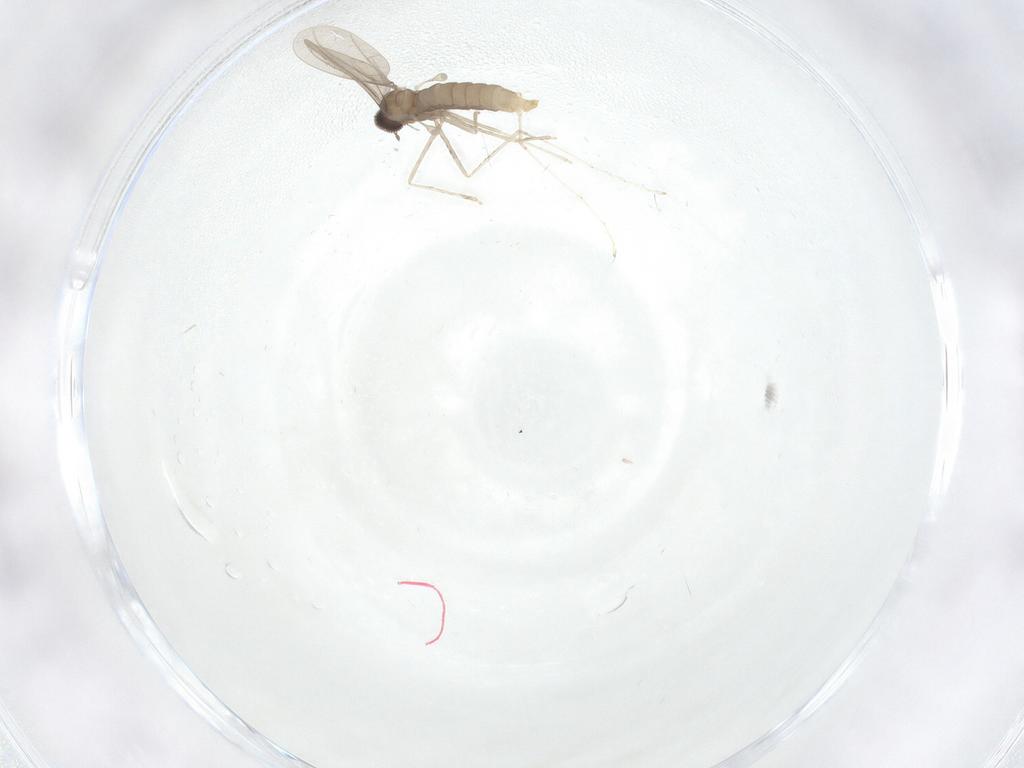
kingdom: Animalia
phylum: Arthropoda
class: Insecta
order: Diptera
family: Cecidomyiidae
